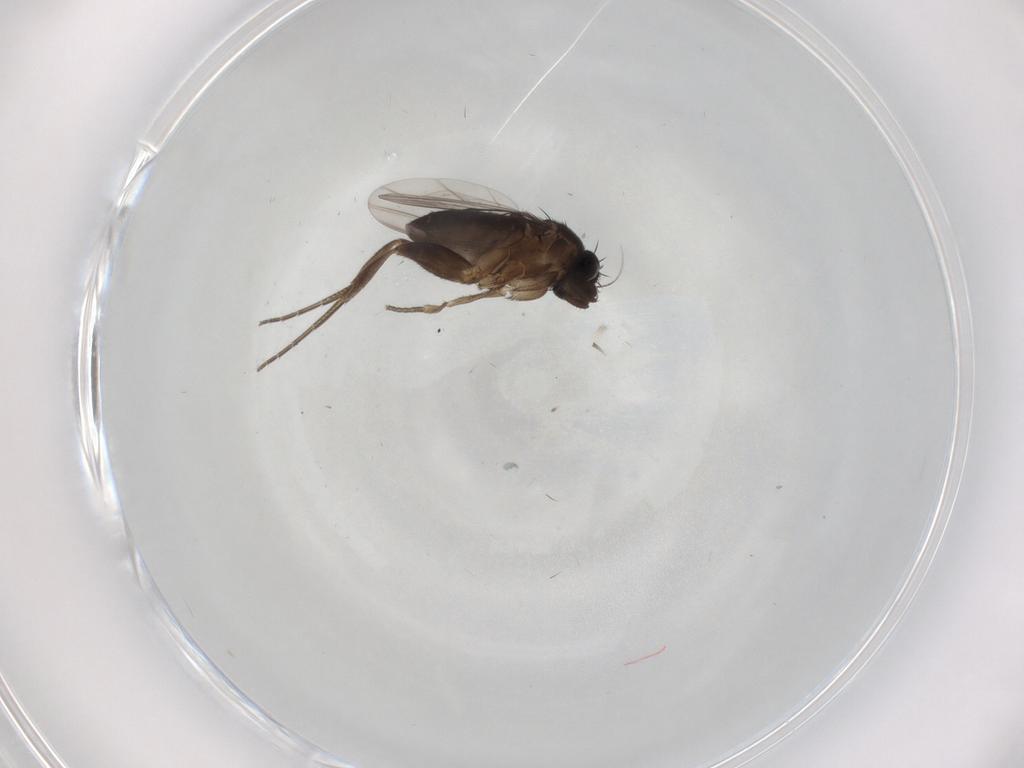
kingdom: Animalia
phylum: Arthropoda
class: Insecta
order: Diptera
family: Phoridae
